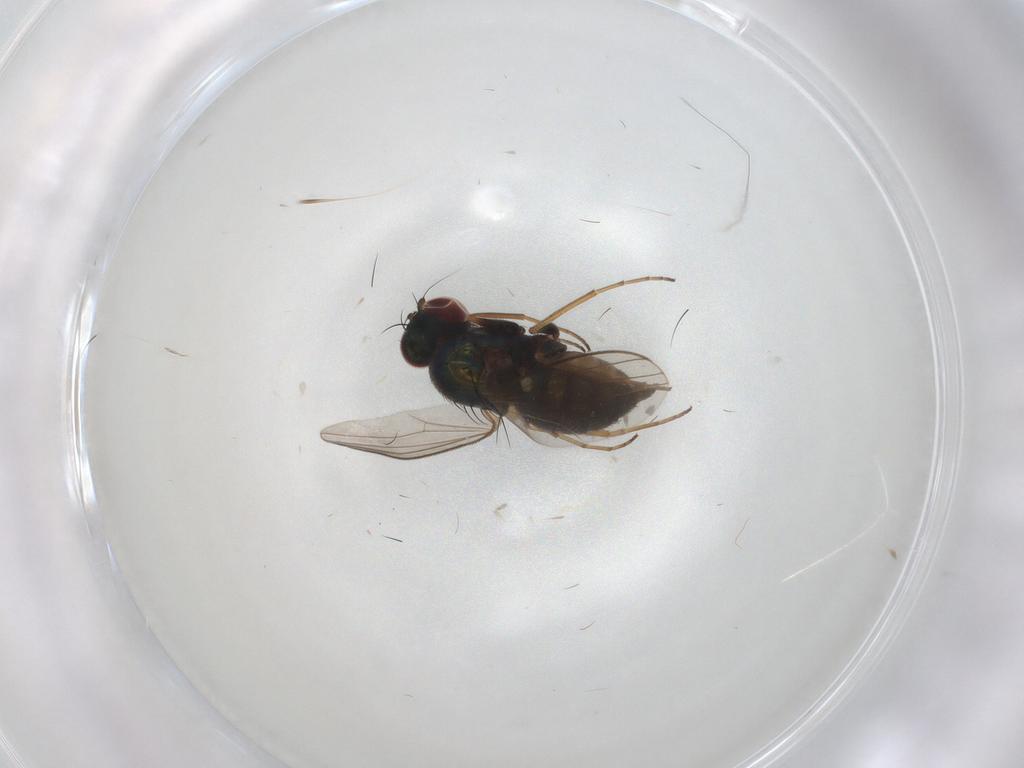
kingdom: Animalia
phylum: Arthropoda
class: Insecta
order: Diptera
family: Dolichopodidae
